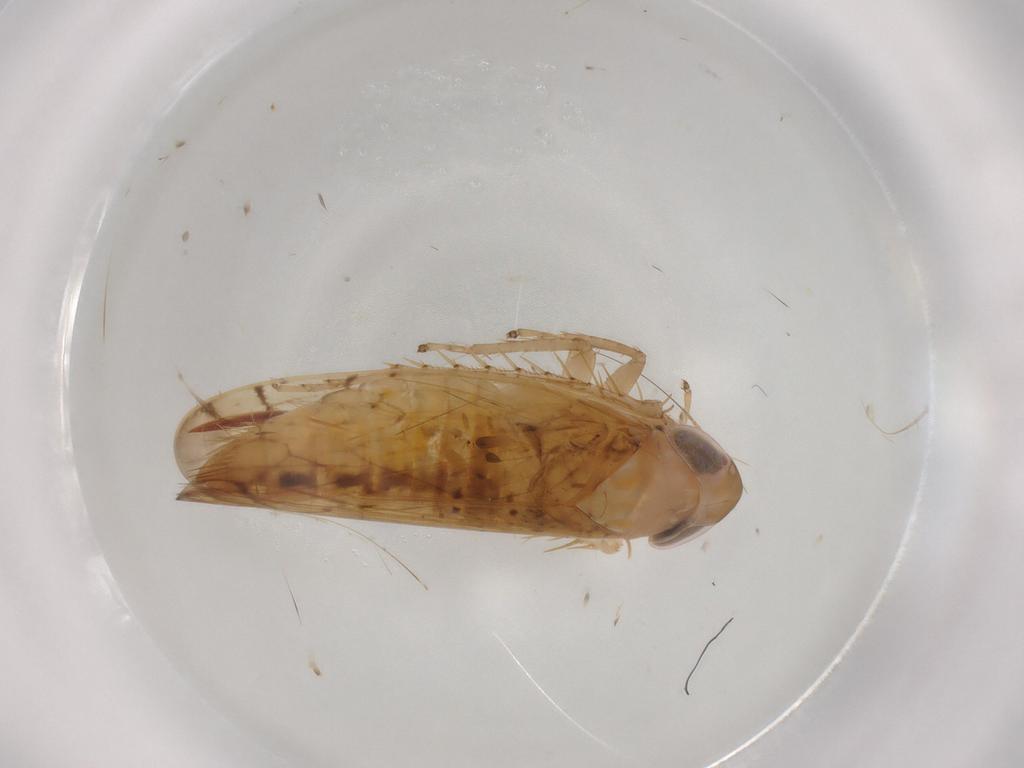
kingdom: Animalia
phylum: Arthropoda
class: Insecta
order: Hemiptera
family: Cicadellidae
